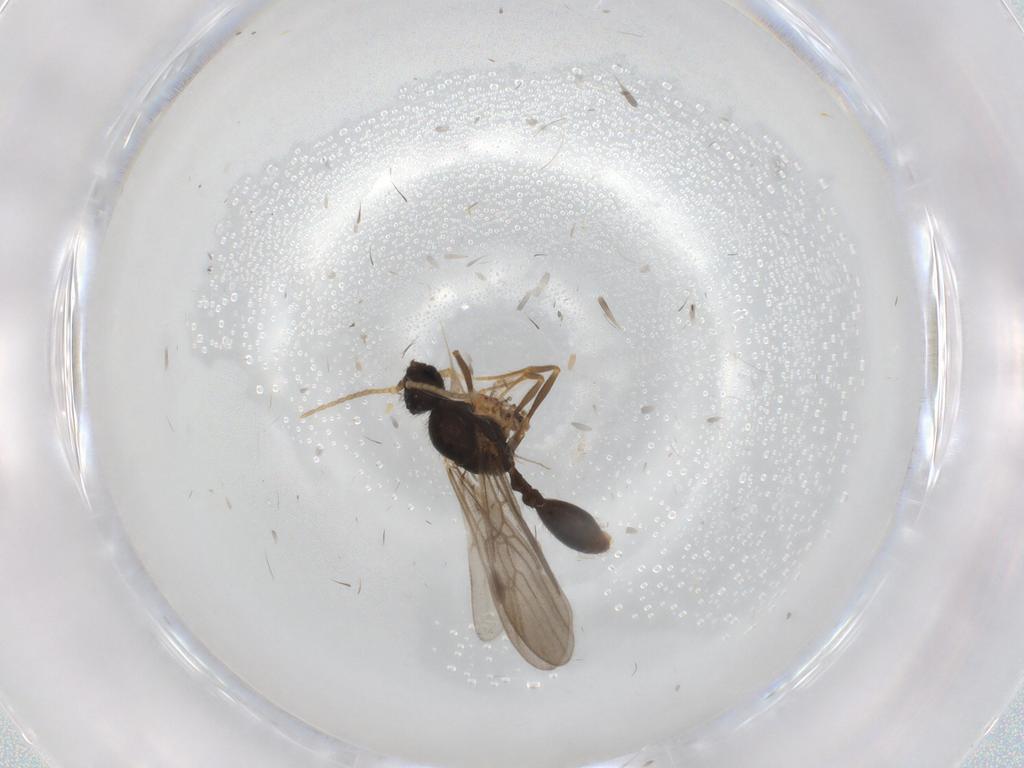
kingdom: Animalia
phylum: Arthropoda
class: Insecta
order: Hymenoptera
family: Formicidae
